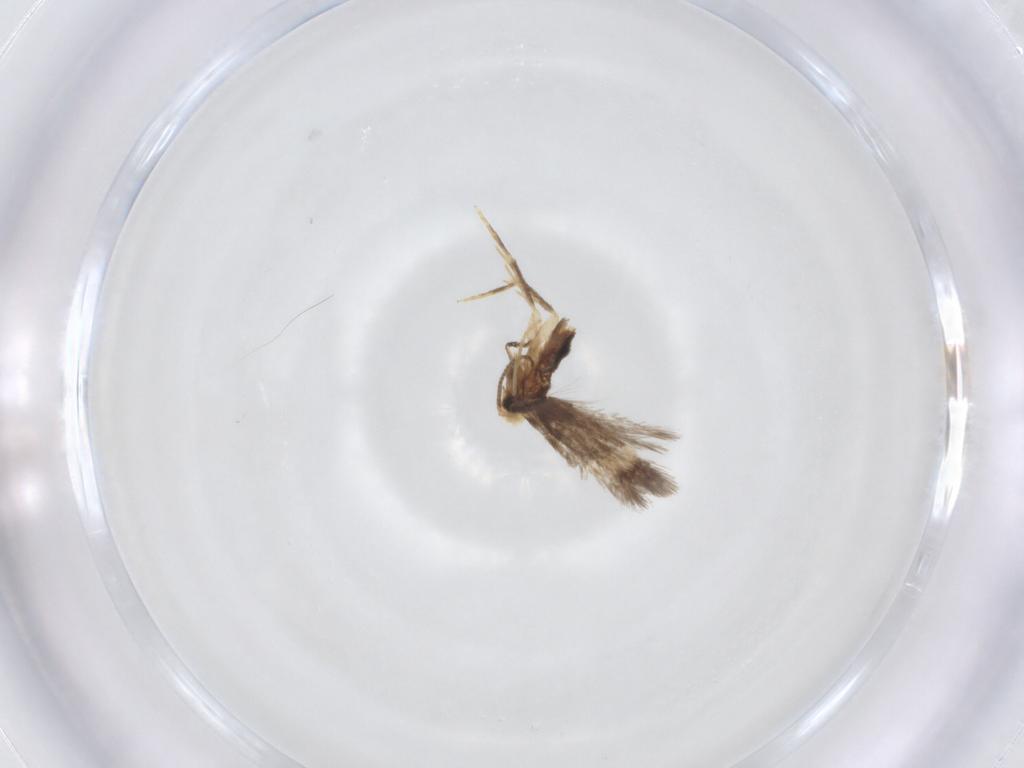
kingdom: Animalia
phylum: Arthropoda
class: Insecta
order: Lepidoptera
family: Nepticulidae
